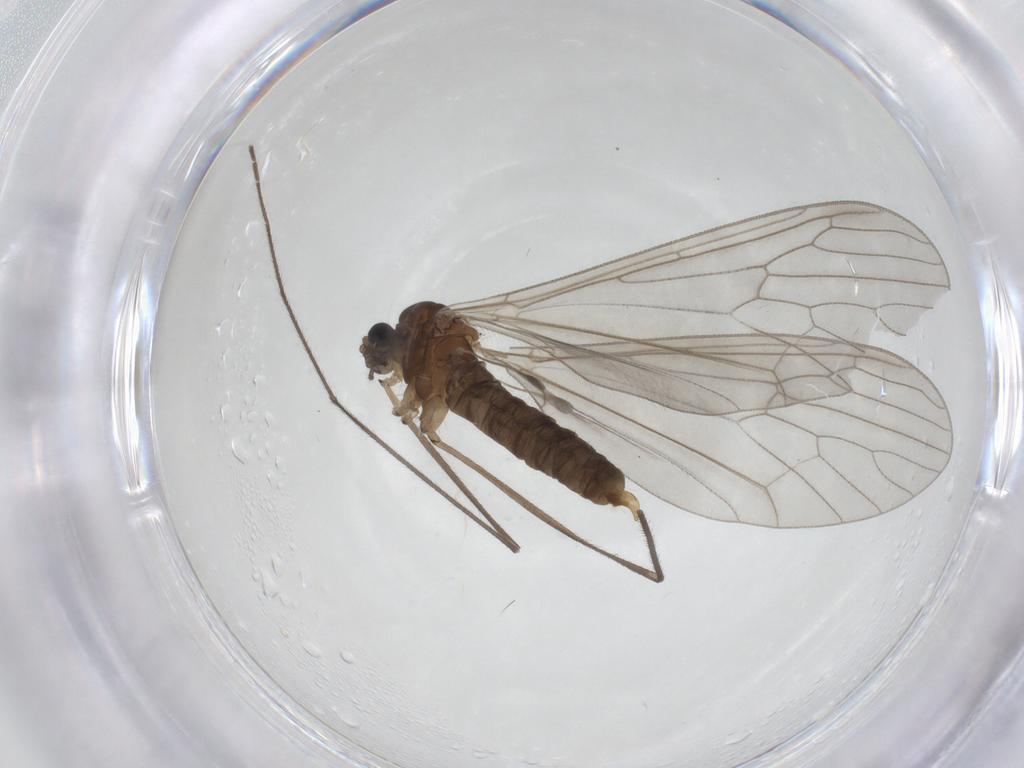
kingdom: Animalia
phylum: Arthropoda
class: Insecta
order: Diptera
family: Trichoceridae
